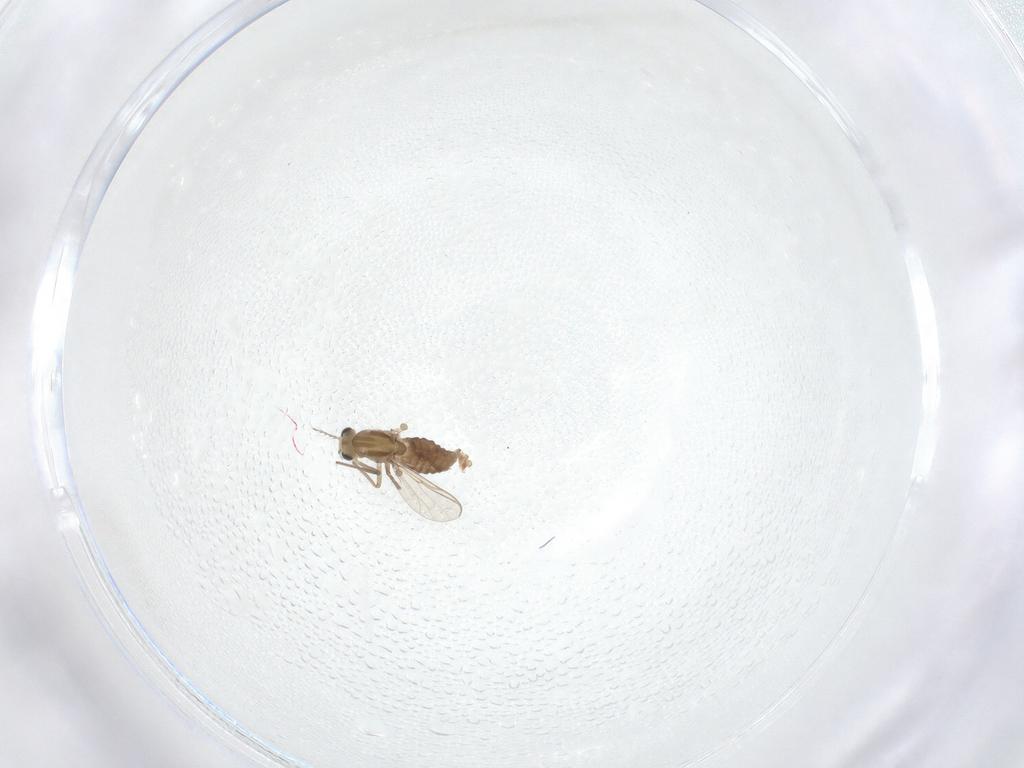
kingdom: Animalia
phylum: Arthropoda
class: Insecta
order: Diptera
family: Chironomidae
